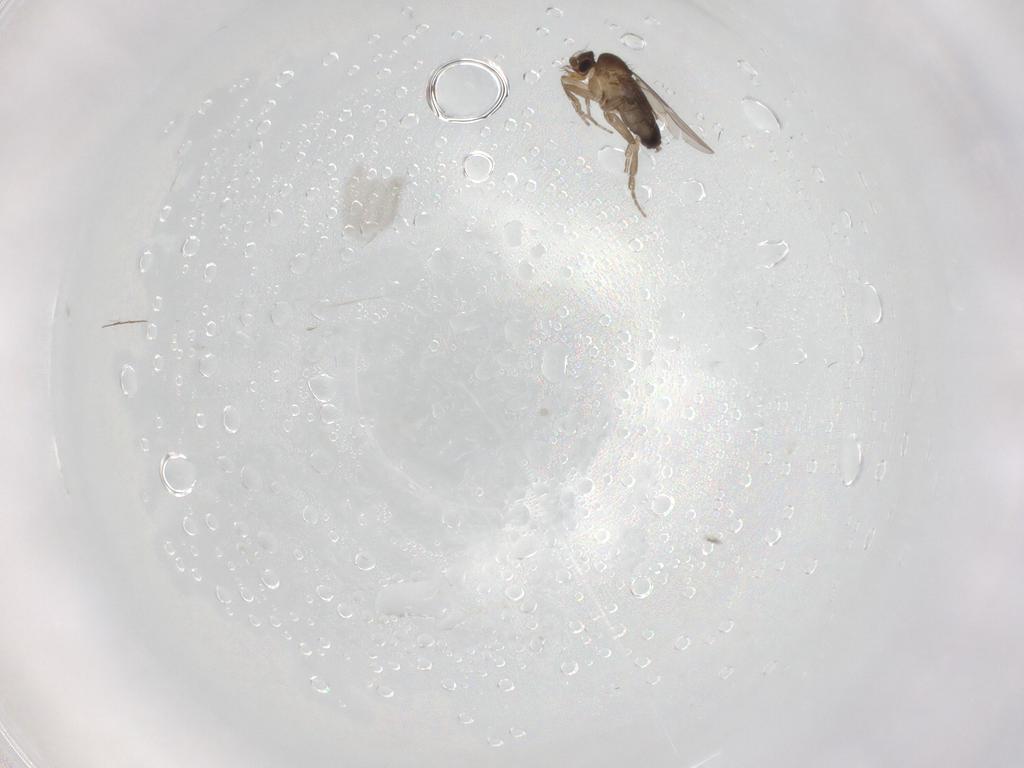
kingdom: Animalia
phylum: Arthropoda
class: Insecta
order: Diptera
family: Phoridae
